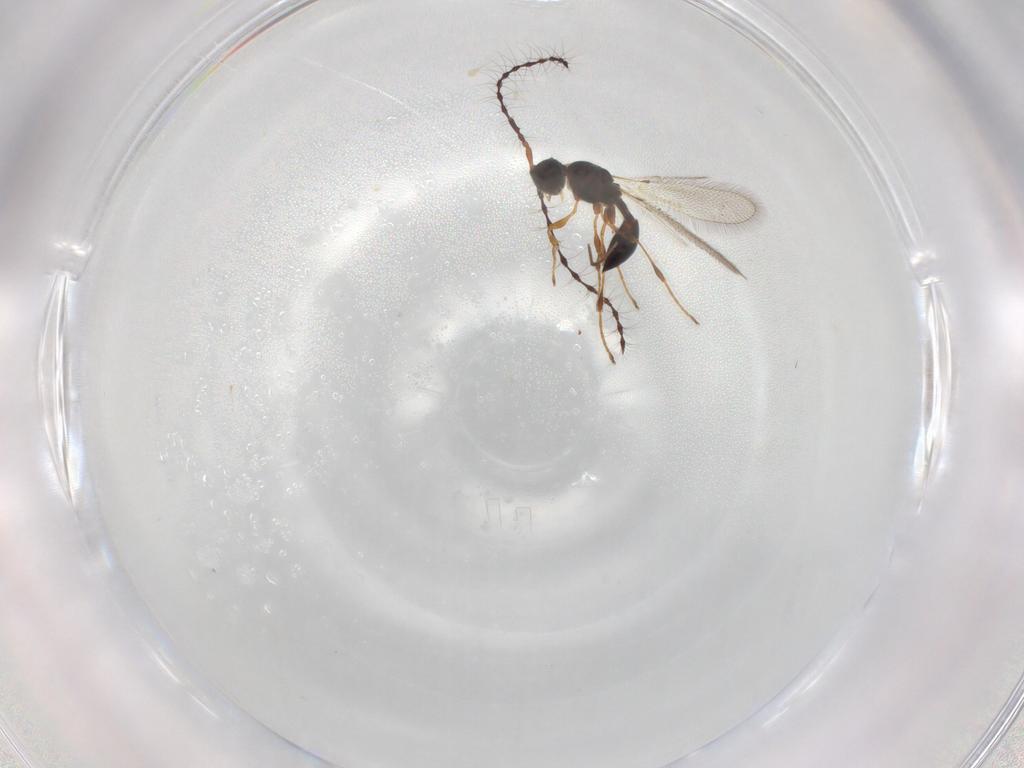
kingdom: Animalia
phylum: Arthropoda
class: Insecta
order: Hymenoptera
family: Diapriidae
